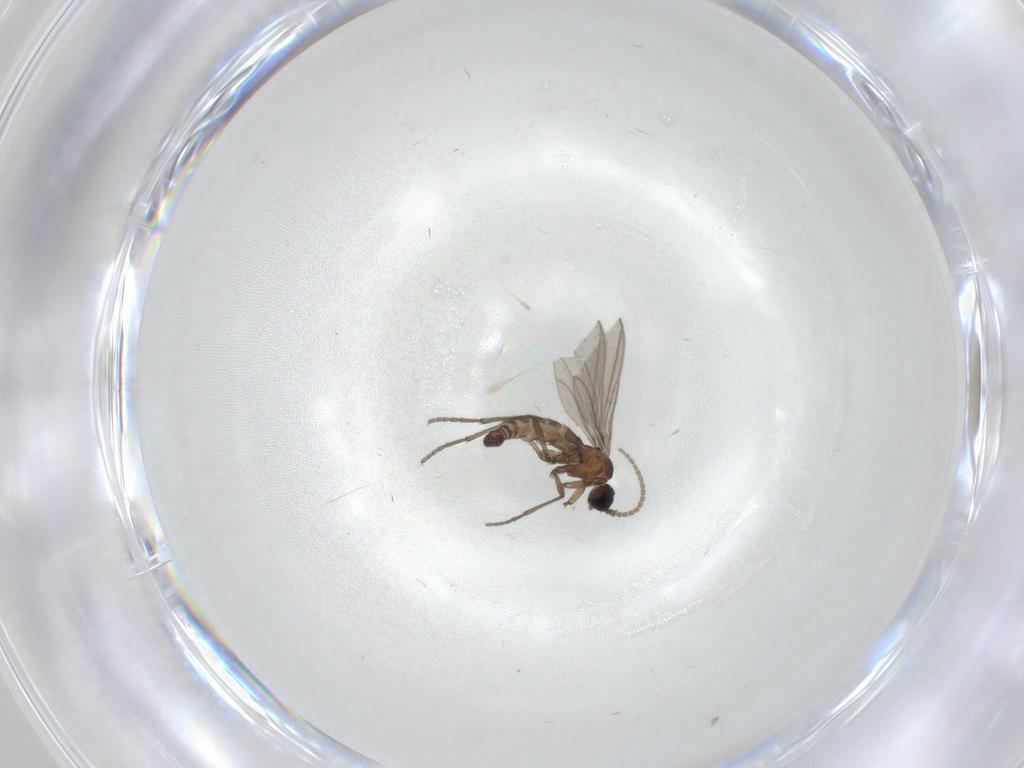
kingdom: Animalia
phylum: Arthropoda
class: Insecta
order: Diptera
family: Sciaridae
